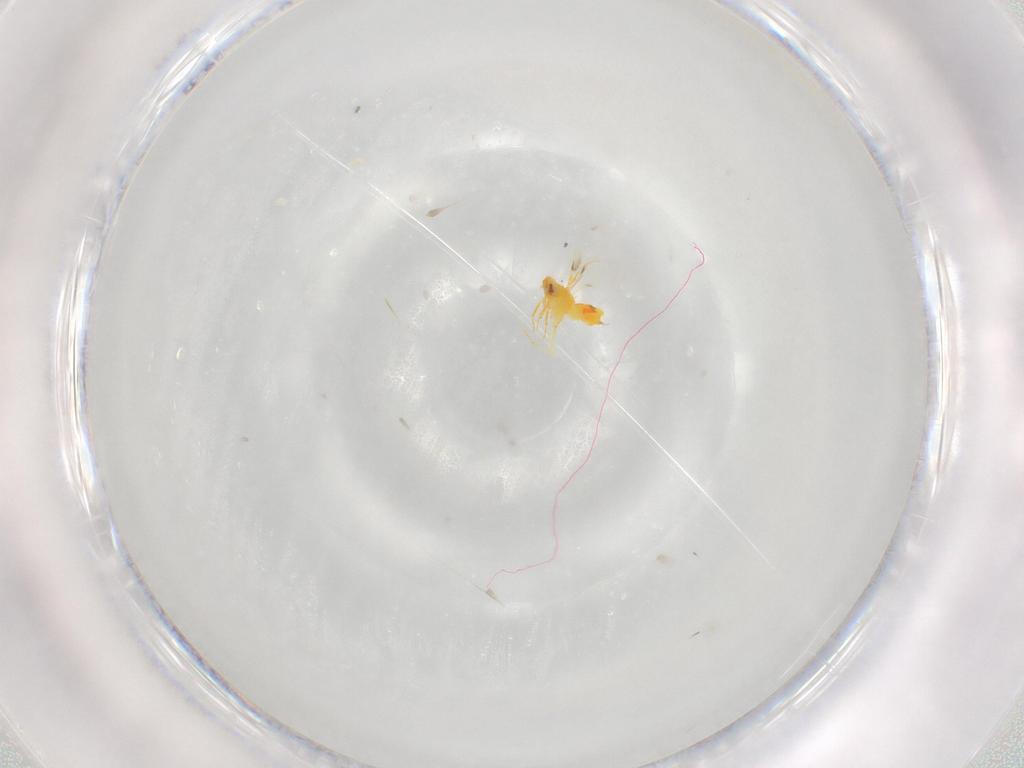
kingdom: Animalia
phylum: Arthropoda
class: Insecta
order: Hemiptera
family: Aleyrodidae
